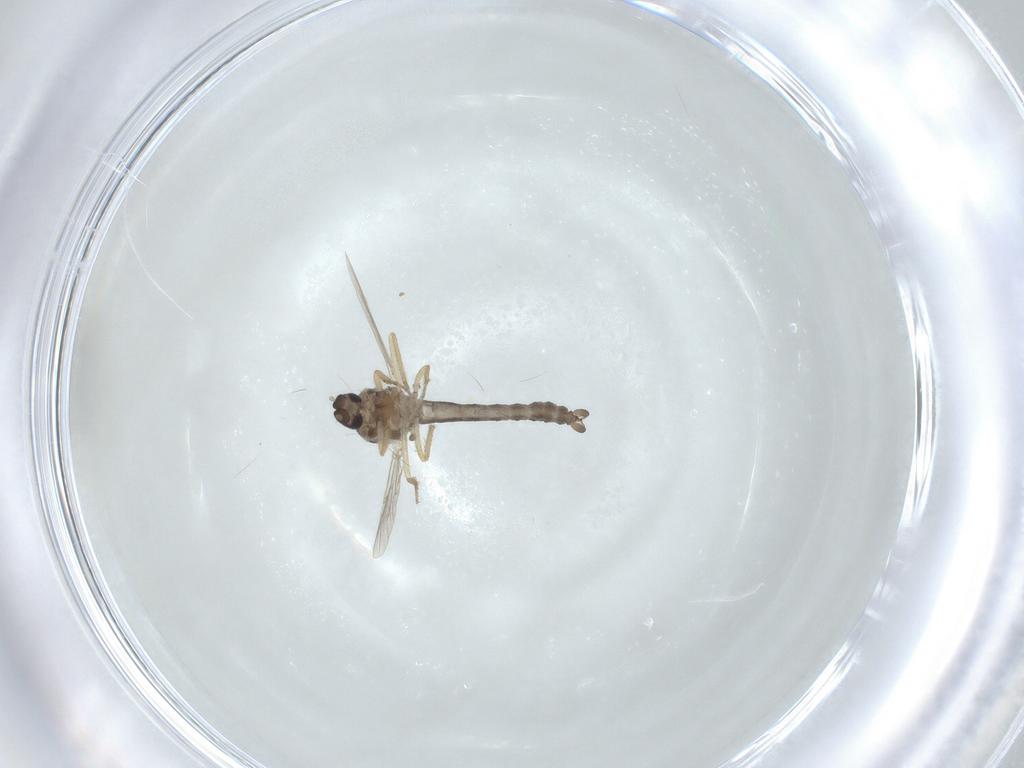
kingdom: Animalia
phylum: Arthropoda
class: Insecta
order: Diptera
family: Ceratopogonidae
